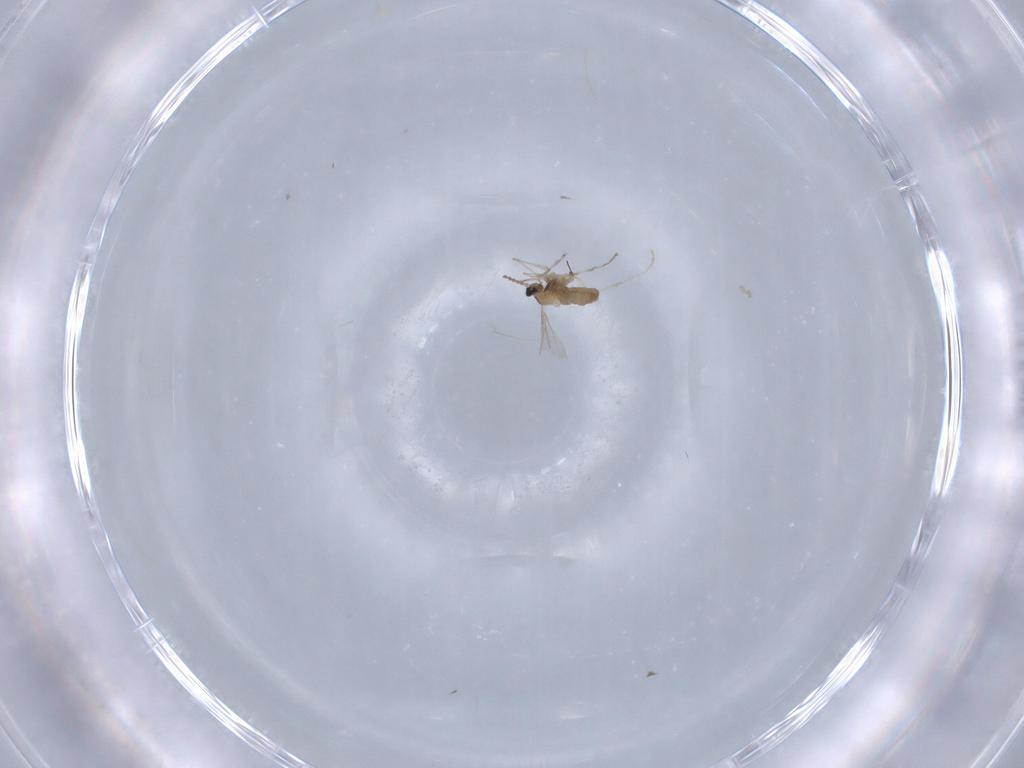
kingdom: Animalia
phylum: Arthropoda
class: Insecta
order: Diptera
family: Cecidomyiidae
